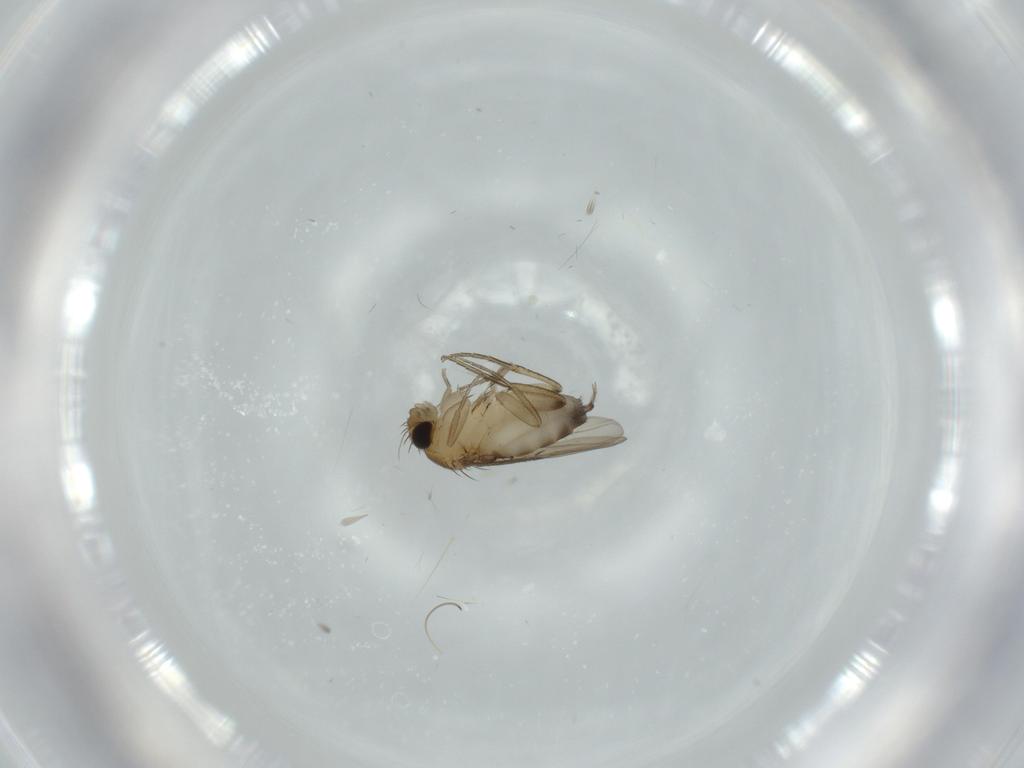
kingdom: Animalia
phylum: Arthropoda
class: Insecta
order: Diptera
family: Phoridae
